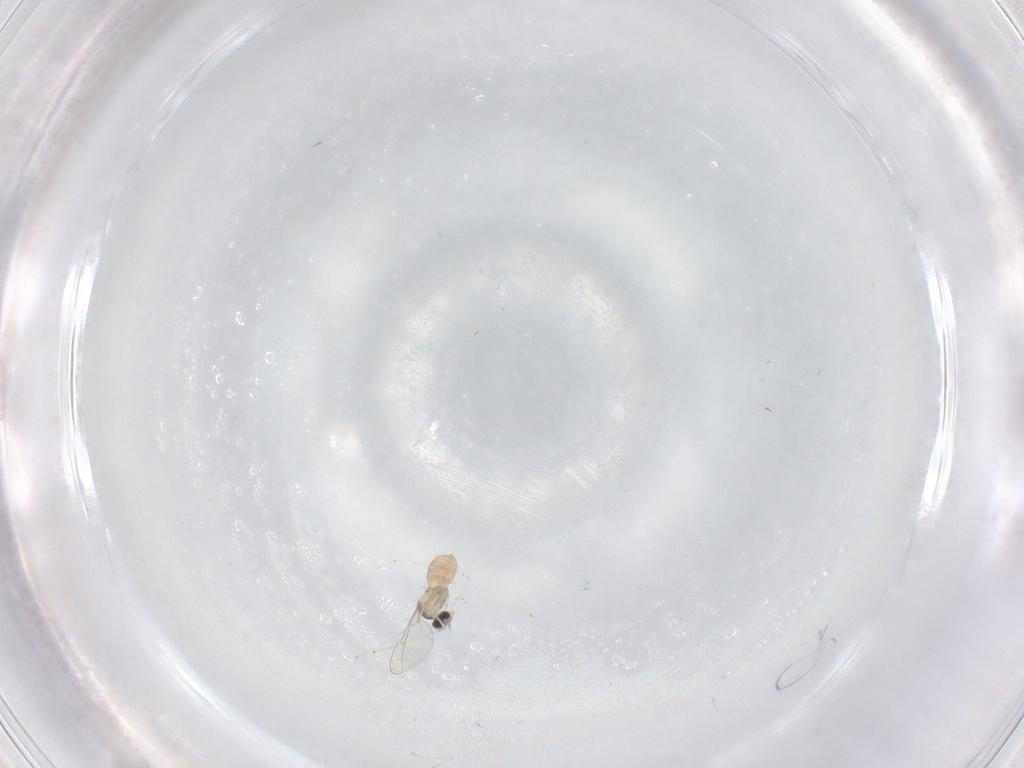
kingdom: Animalia
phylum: Arthropoda
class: Insecta
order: Diptera
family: Cecidomyiidae
